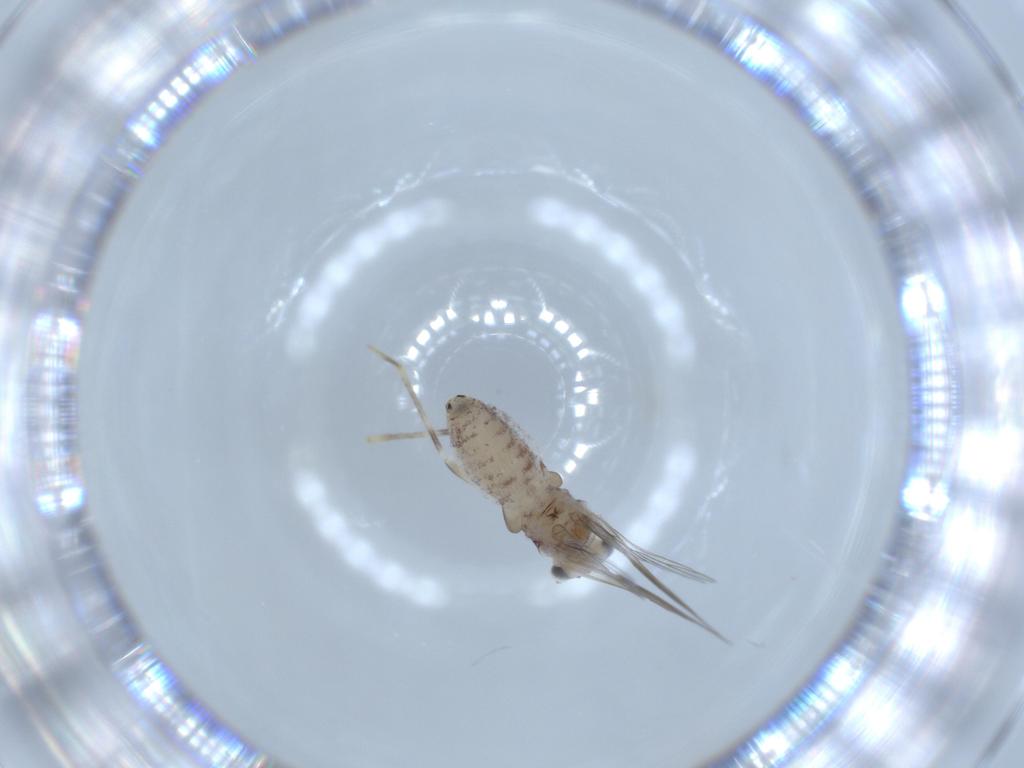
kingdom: Animalia
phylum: Arthropoda
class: Insecta
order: Psocodea
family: Lepidopsocidae
